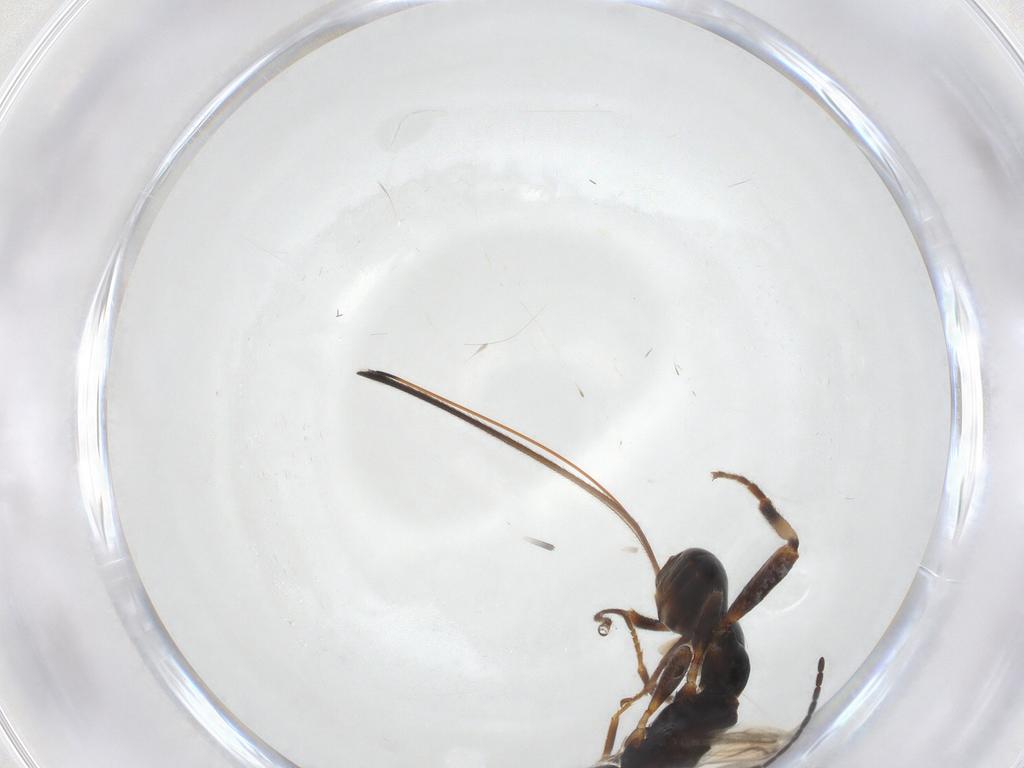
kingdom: Animalia
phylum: Arthropoda
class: Insecta
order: Hymenoptera
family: Braconidae
